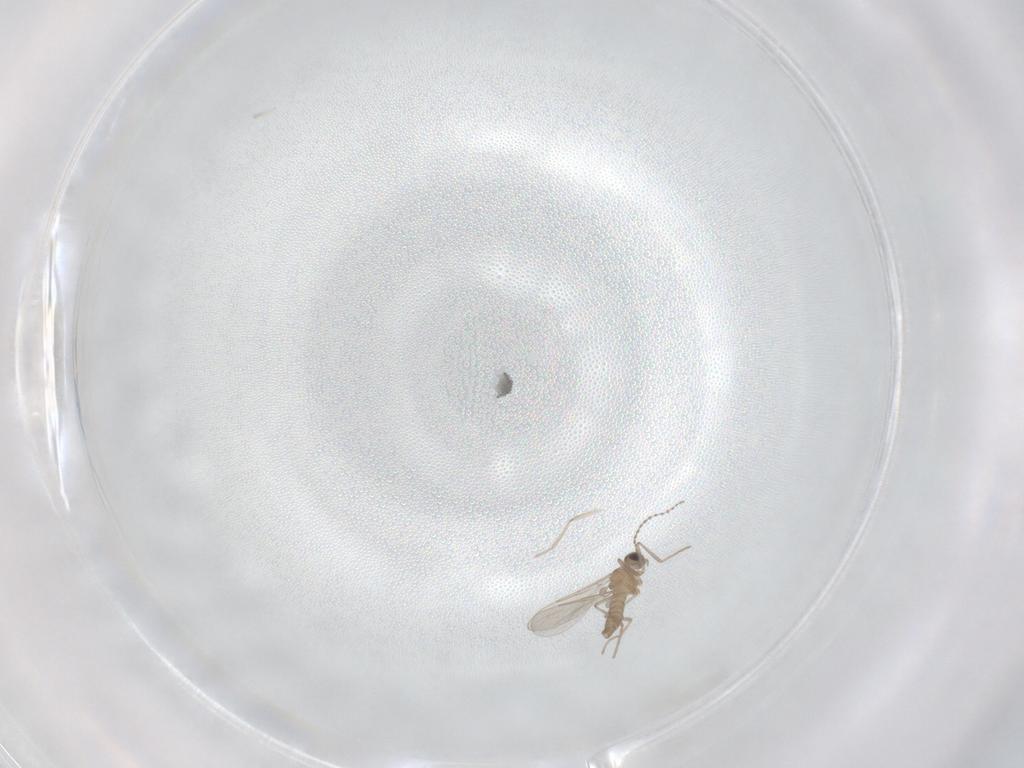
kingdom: Animalia
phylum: Arthropoda
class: Insecta
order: Diptera
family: Cecidomyiidae
